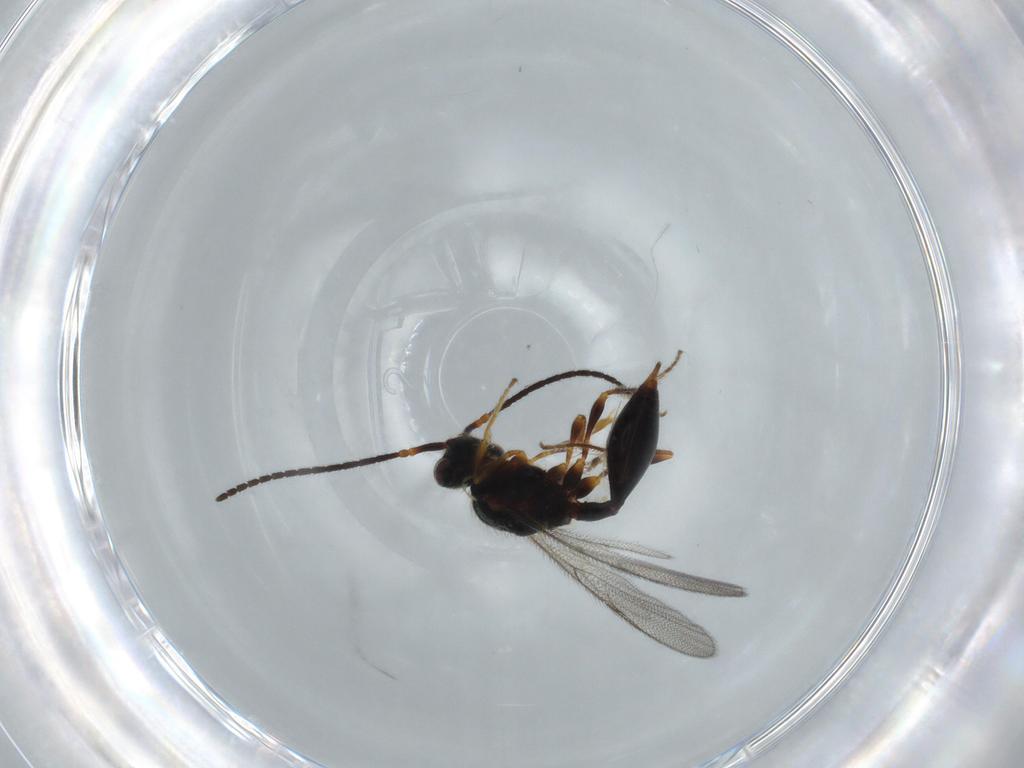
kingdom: Animalia
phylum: Arthropoda
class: Insecta
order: Hymenoptera
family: Diapriidae
